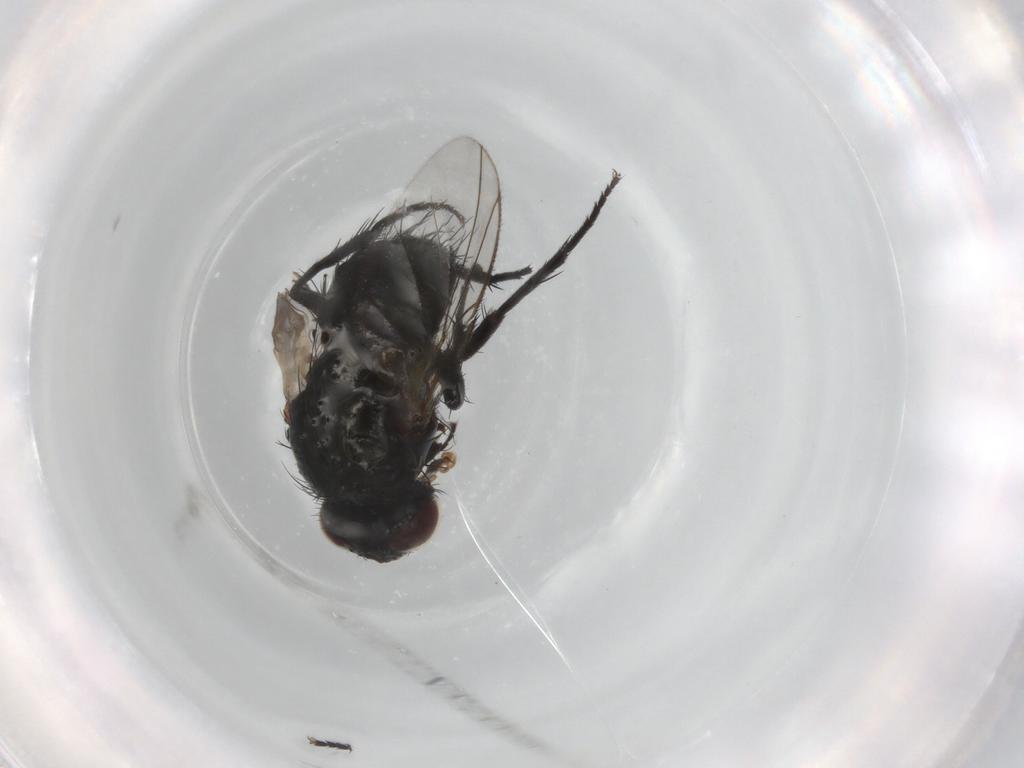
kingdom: Animalia
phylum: Arthropoda
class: Insecta
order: Diptera
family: Tachinidae
